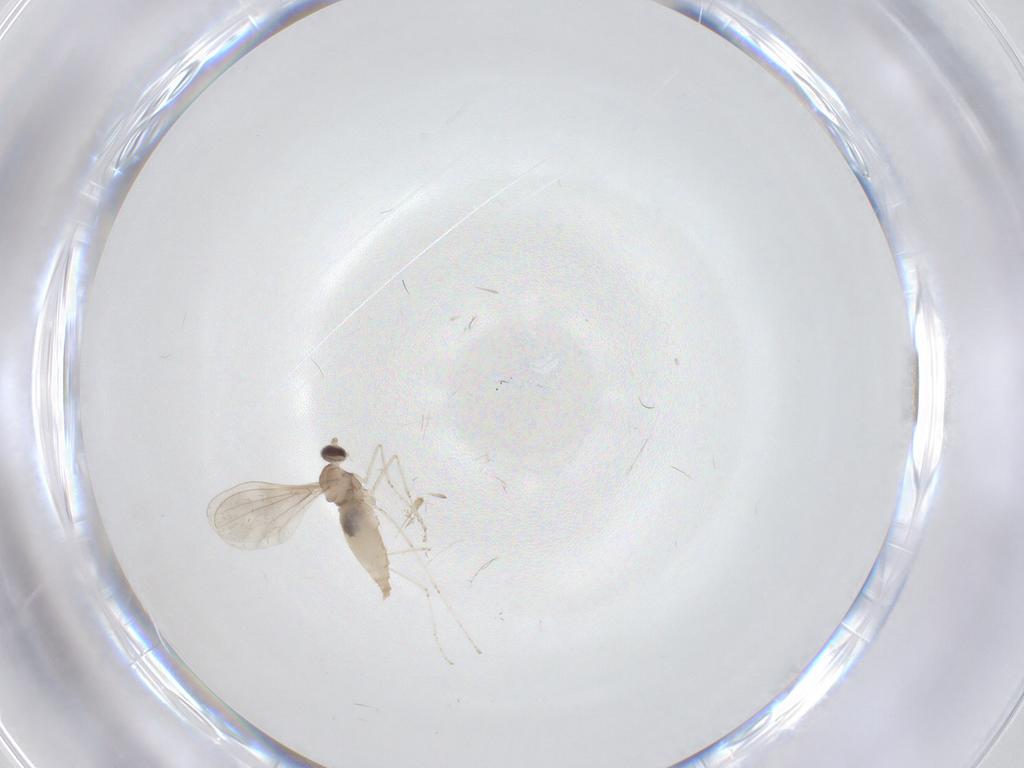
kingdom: Animalia
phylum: Arthropoda
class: Insecta
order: Diptera
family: Cecidomyiidae
